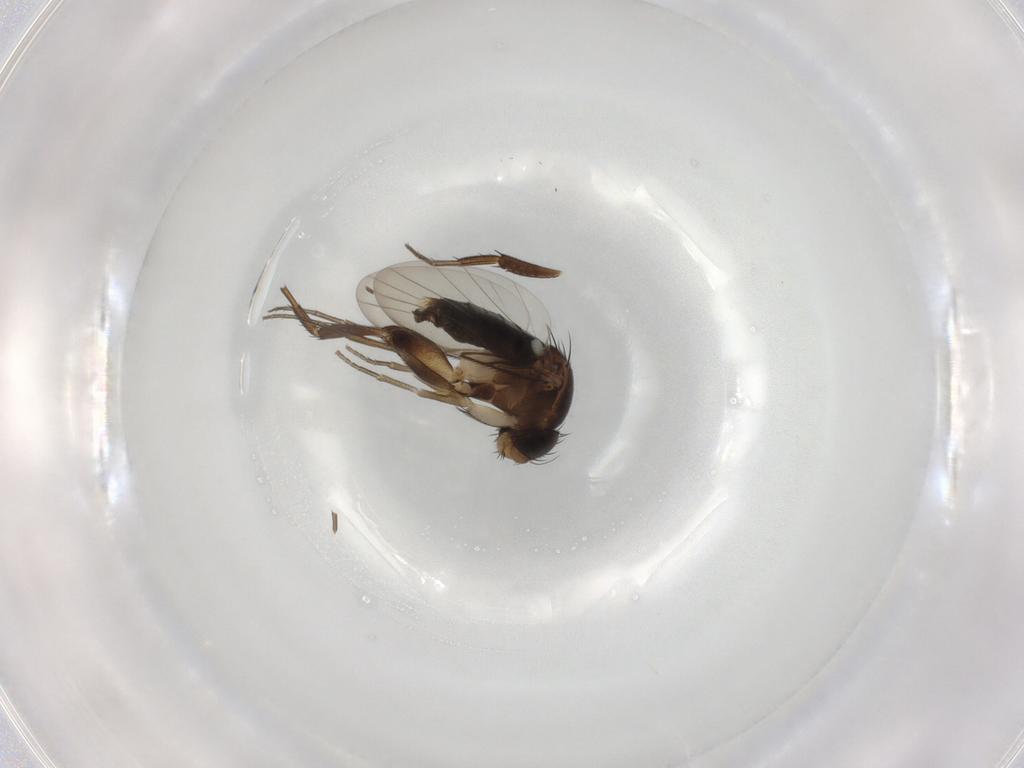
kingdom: Animalia
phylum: Arthropoda
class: Insecta
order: Diptera
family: Phoridae
